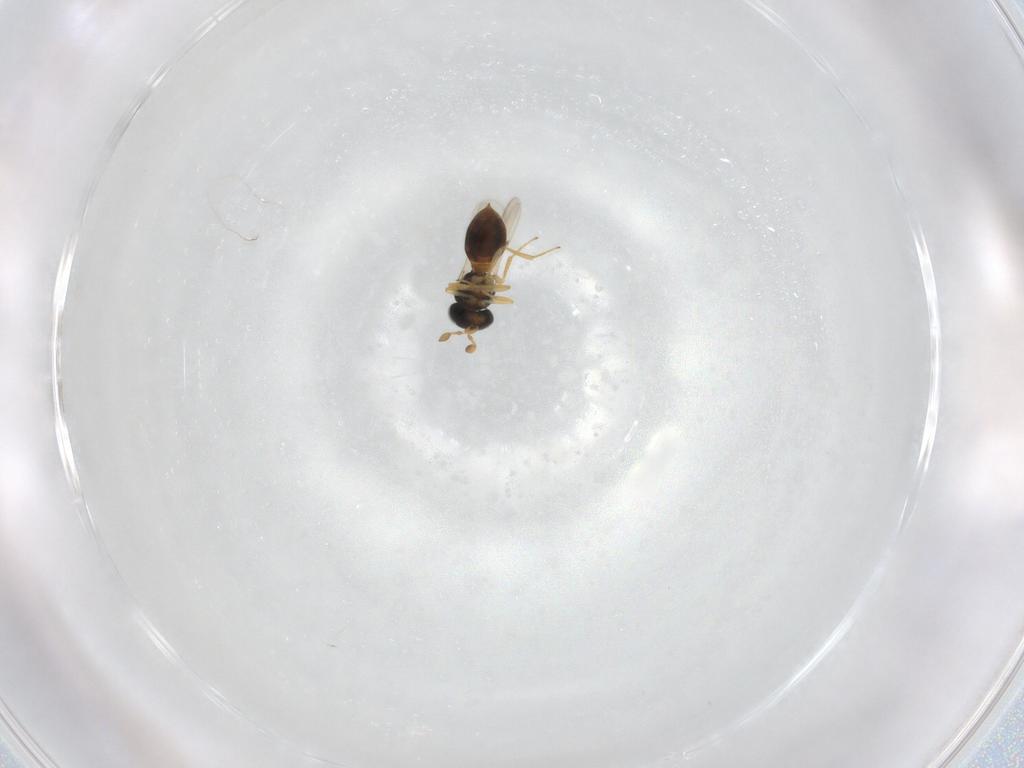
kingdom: Animalia
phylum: Arthropoda
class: Insecta
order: Hymenoptera
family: Scelionidae
